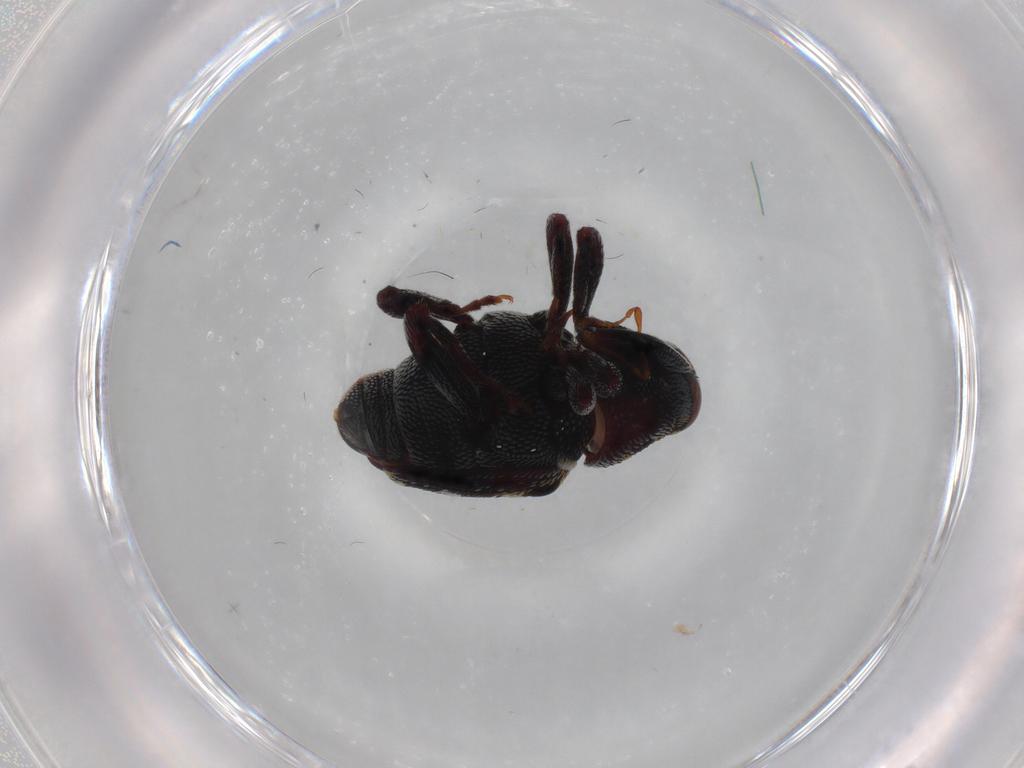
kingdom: Animalia
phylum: Arthropoda
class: Insecta
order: Coleoptera
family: Curculionidae
